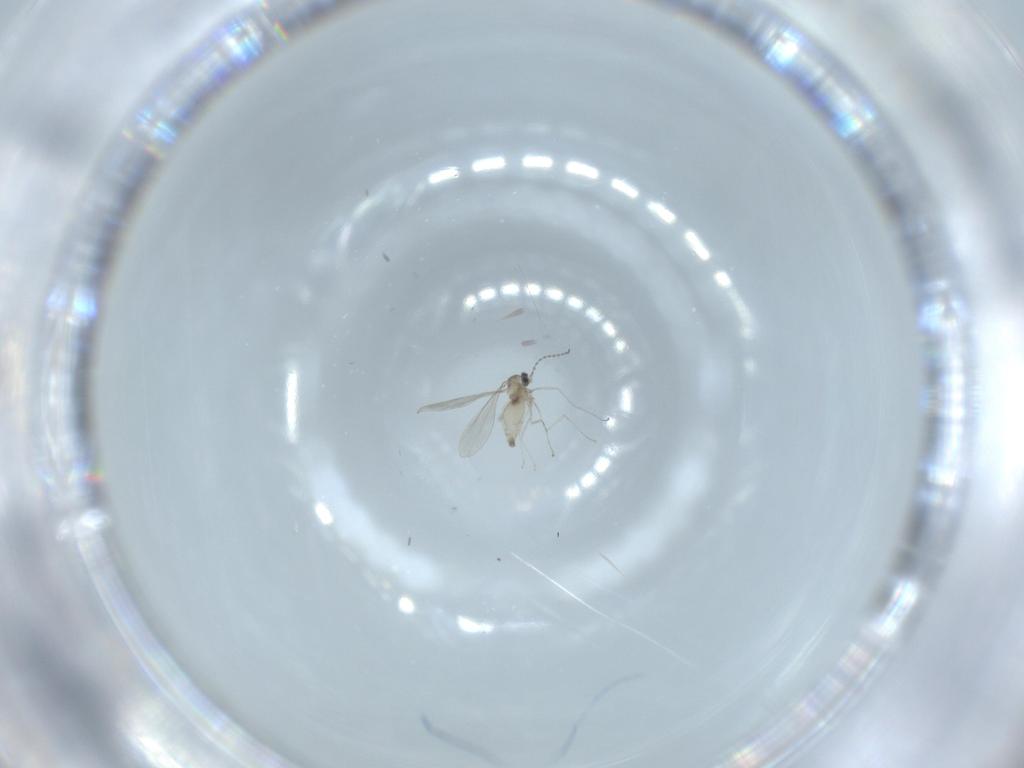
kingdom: Animalia
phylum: Arthropoda
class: Insecta
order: Diptera
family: Cecidomyiidae
